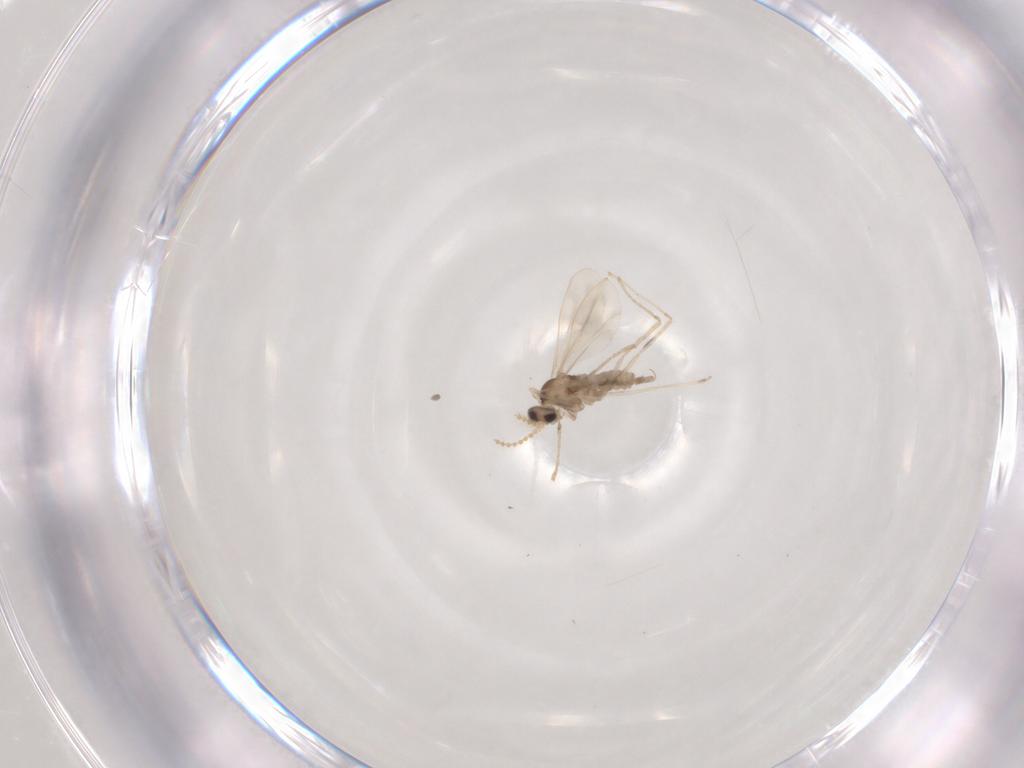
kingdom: Animalia
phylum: Arthropoda
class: Insecta
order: Diptera
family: Cecidomyiidae
